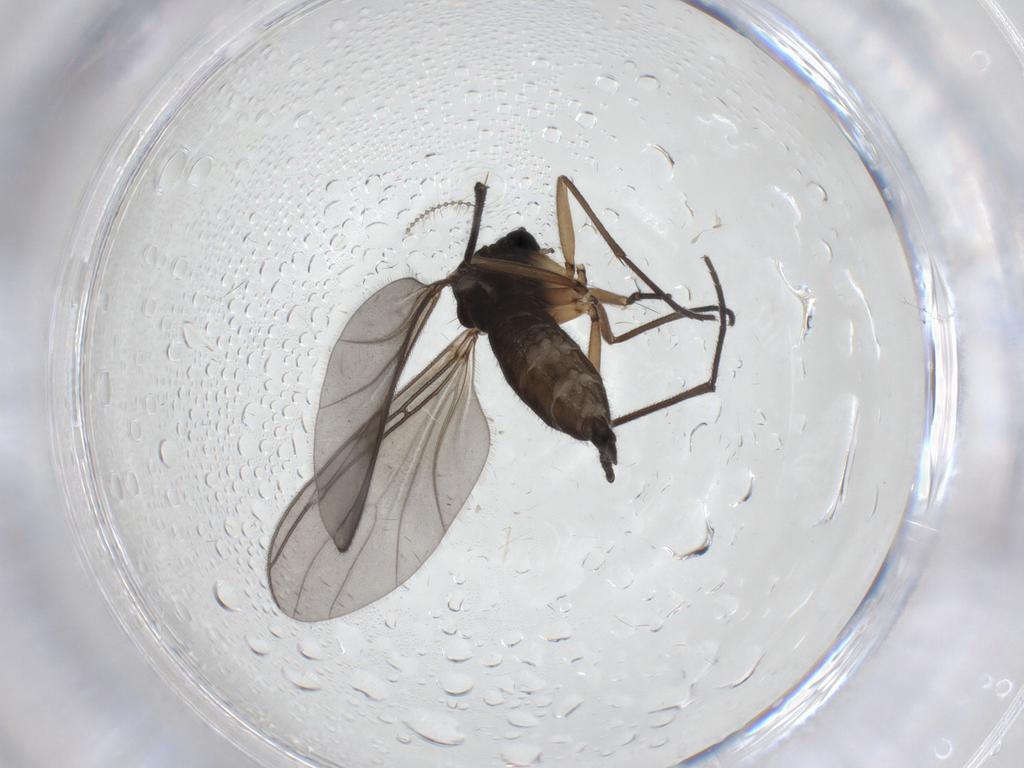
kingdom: Animalia
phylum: Arthropoda
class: Insecta
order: Diptera
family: Sciaridae
